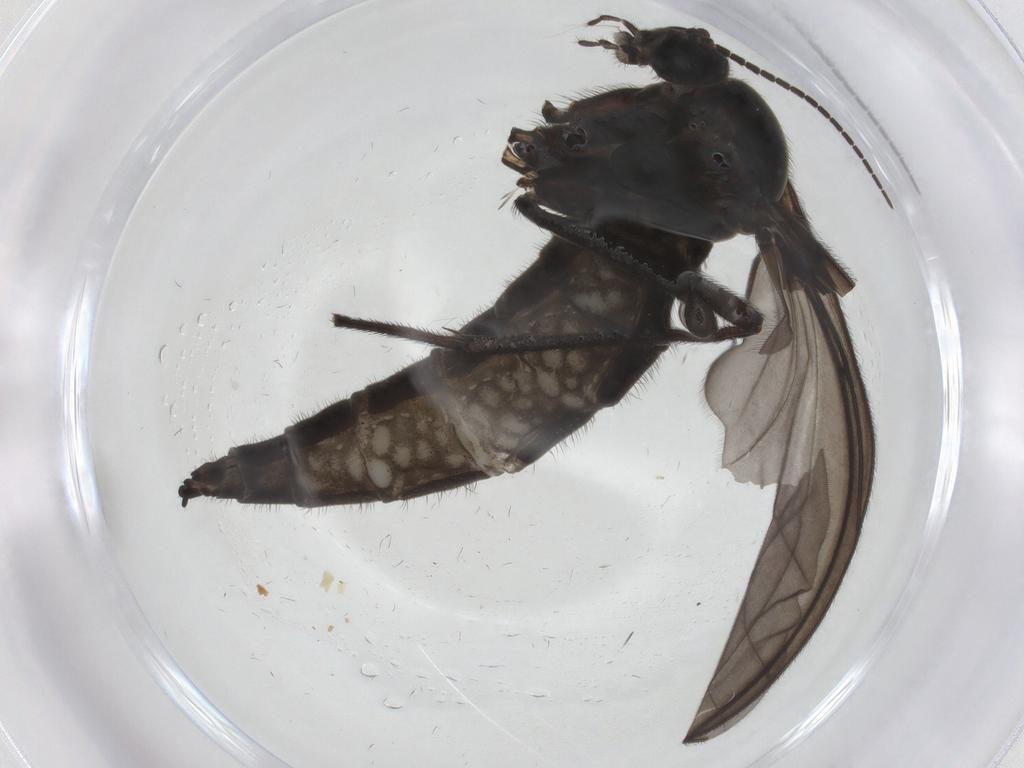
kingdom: Animalia
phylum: Arthropoda
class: Insecta
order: Diptera
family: Sciaridae
